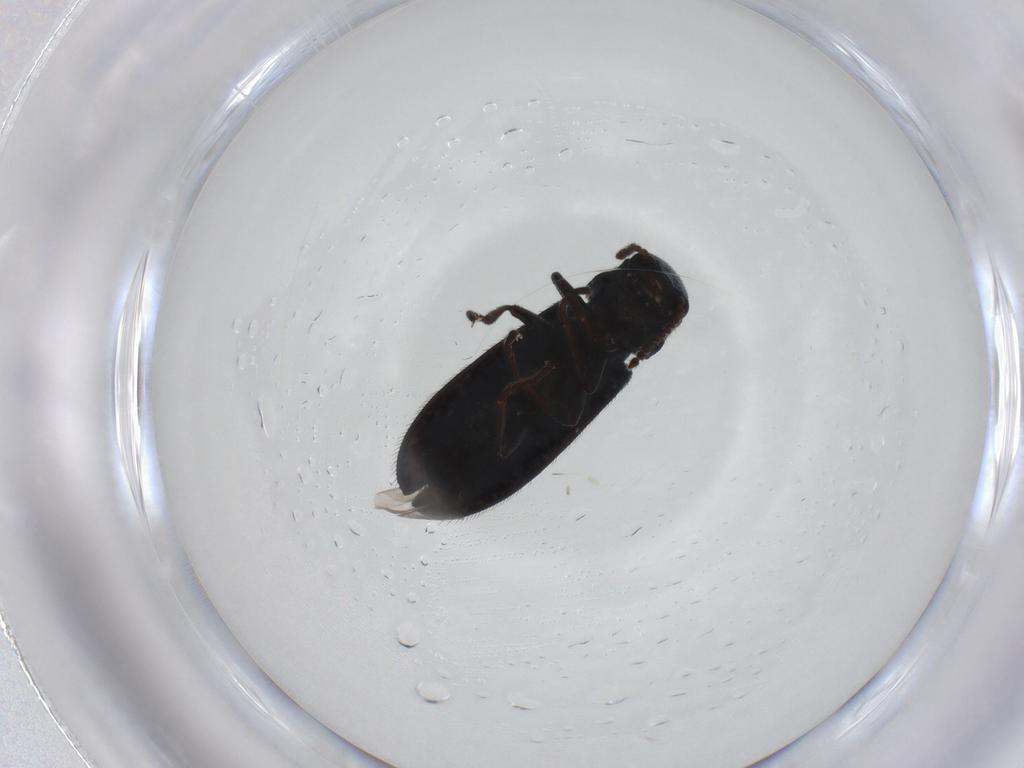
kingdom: Animalia
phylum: Arthropoda
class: Insecta
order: Coleoptera
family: Melyridae
